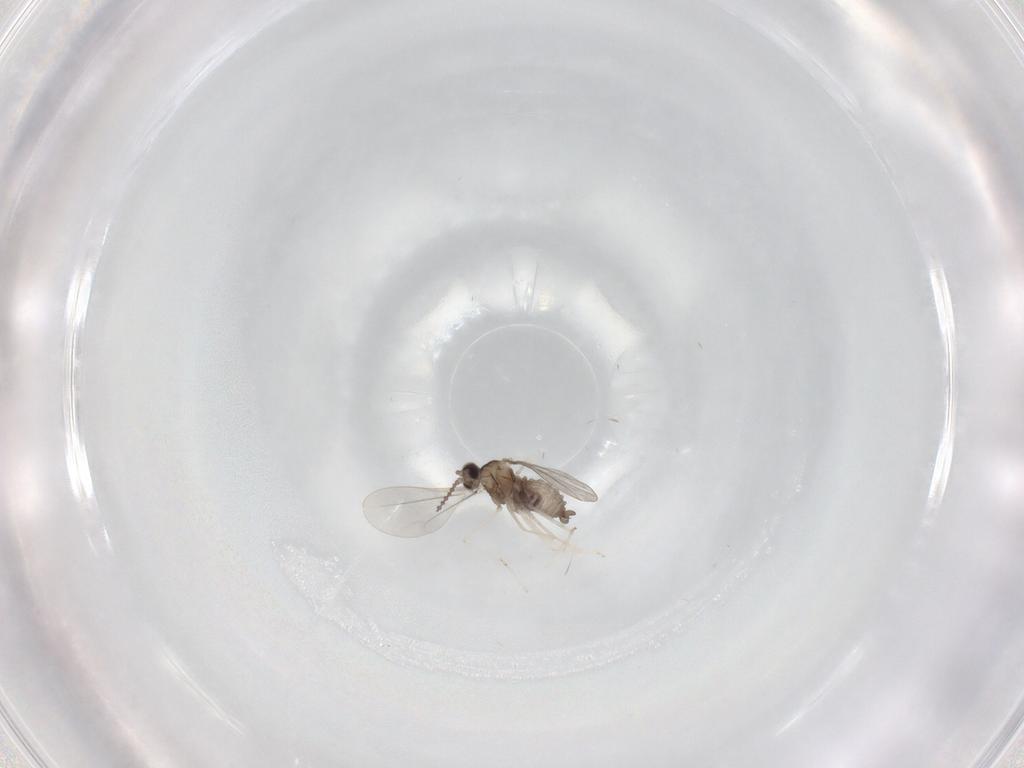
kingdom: Animalia
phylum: Arthropoda
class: Insecta
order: Diptera
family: Cecidomyiidae
